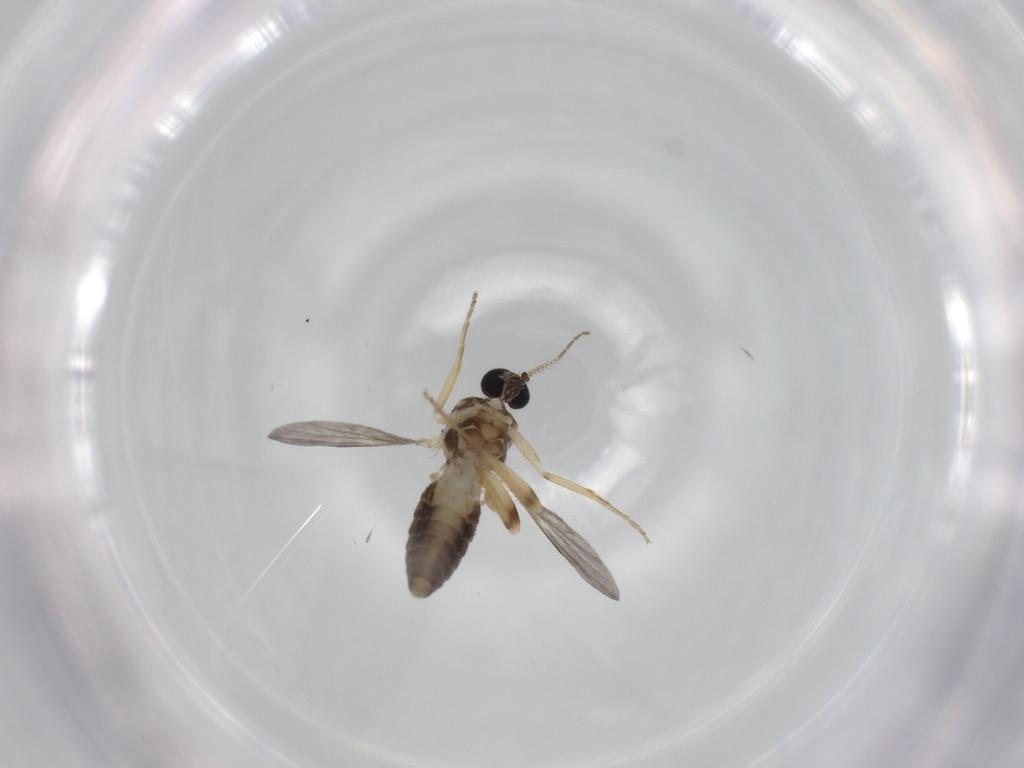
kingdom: Animalia
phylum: Arthropoda
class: Insecta
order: Diptera
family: Ceratopogonidae
